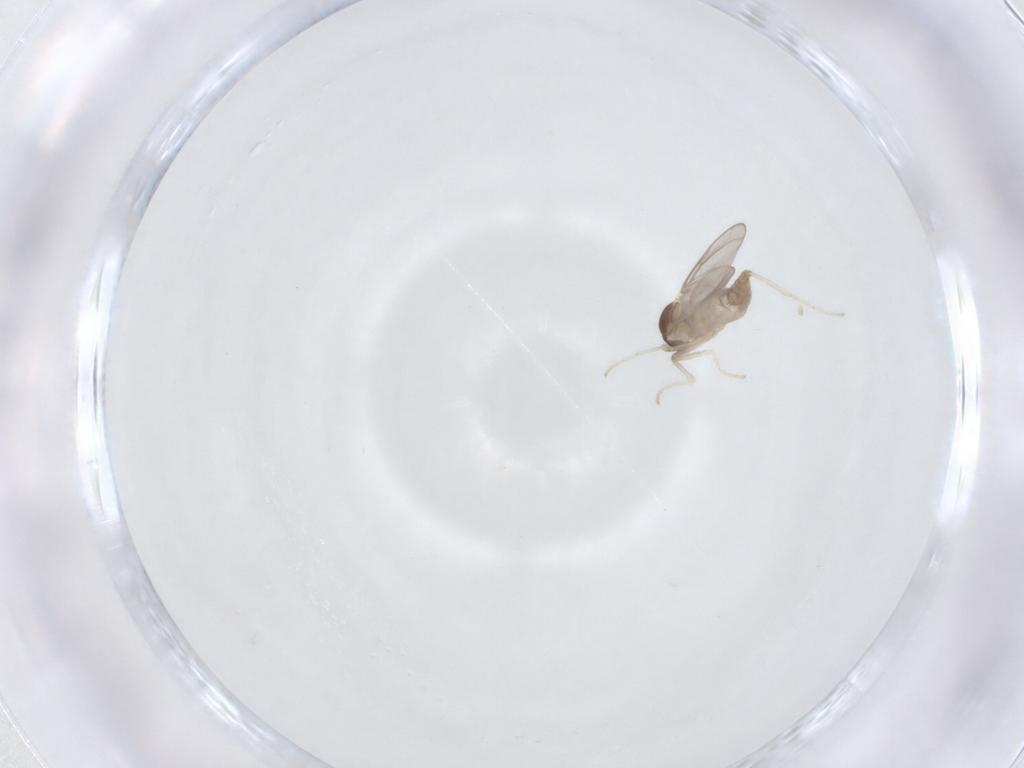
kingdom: Animalia
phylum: Arthropoda
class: Insecta
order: Diptera
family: Cecidomyiidae
